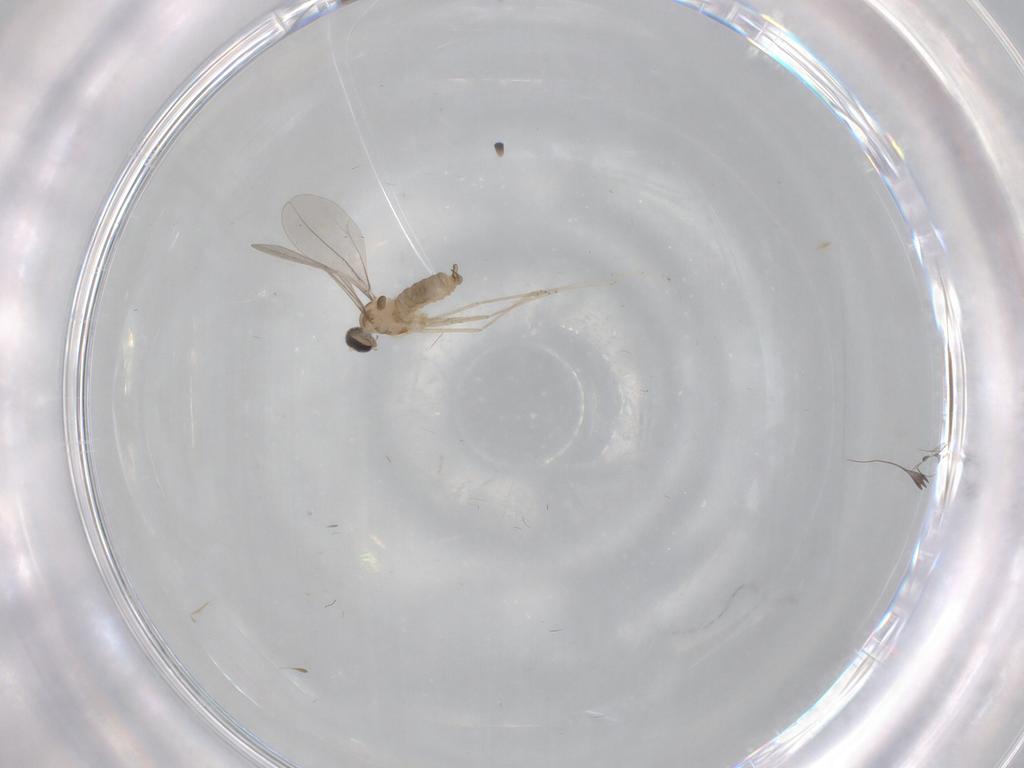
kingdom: Animalia
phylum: Arthropoda
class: Insecta
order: Diptera
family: Cecidomyiidae
